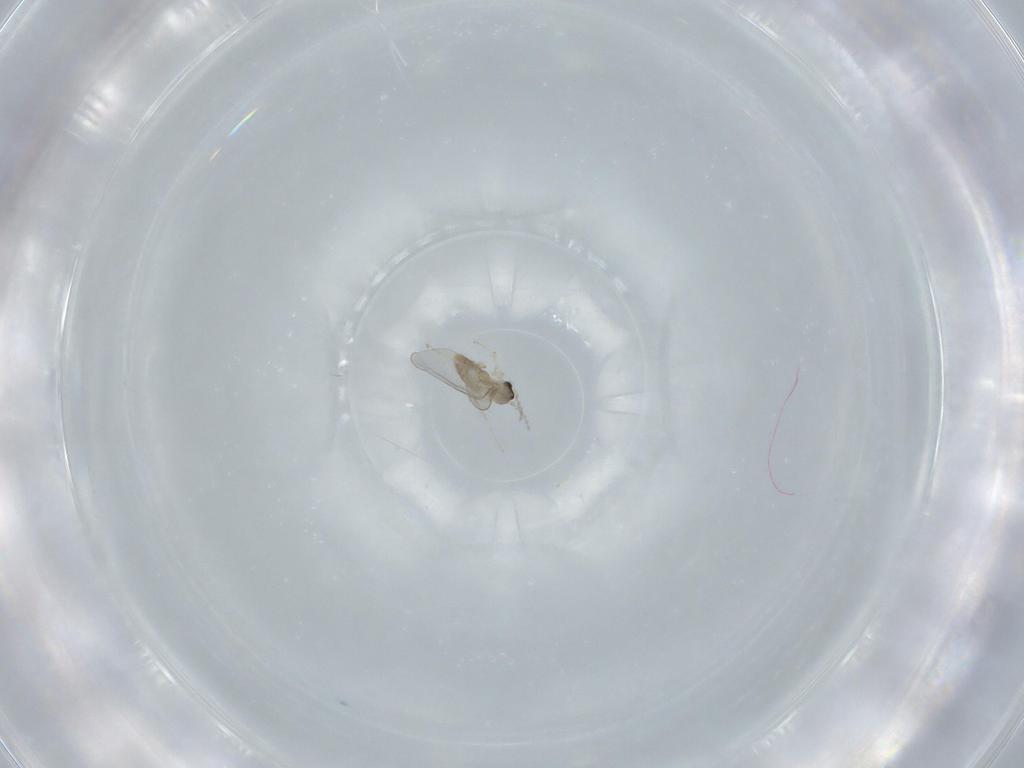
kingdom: Animalia
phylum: Arthropoda
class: Insecta
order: Diptera
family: Cecidomyiidae
